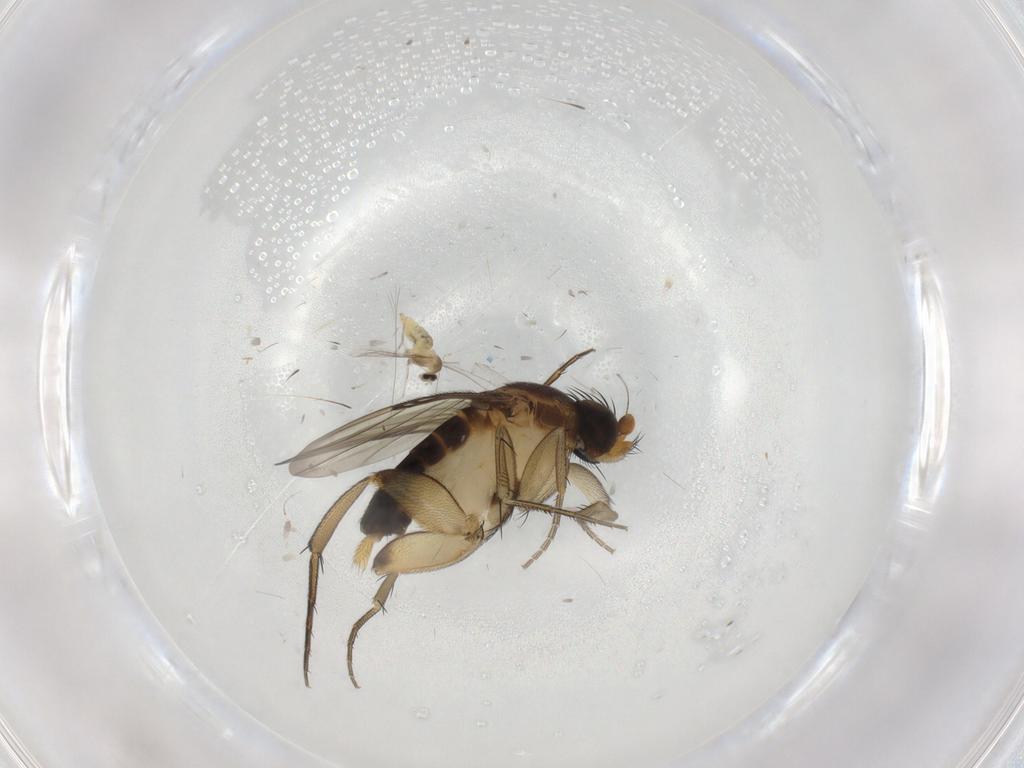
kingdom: Animalia
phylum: Arthropoda
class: Insecta
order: Diptera
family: Phoridae
